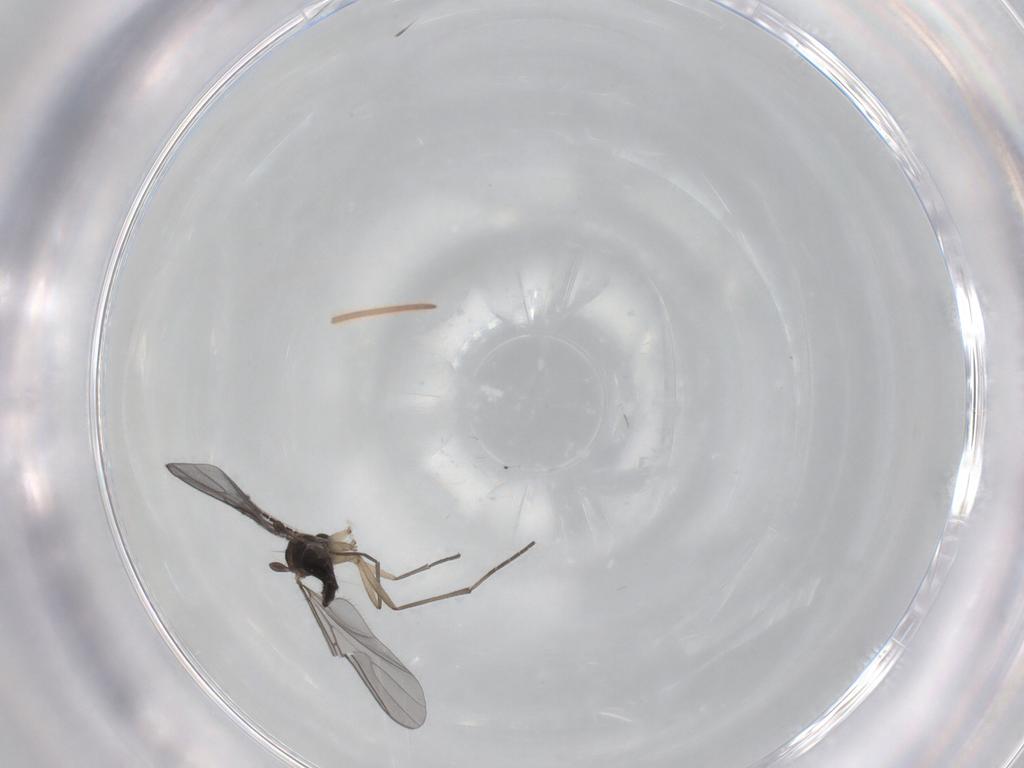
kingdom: Animalia
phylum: Arthropoda
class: Insecta
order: Diptera
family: Sciaridae
